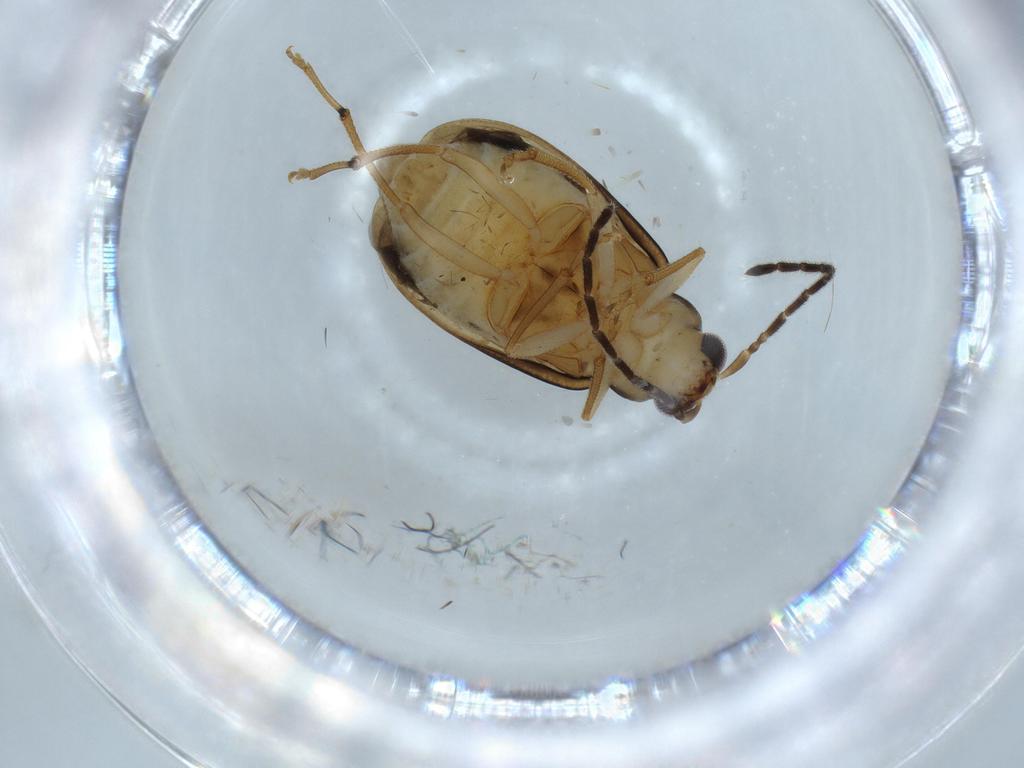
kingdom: Animalia
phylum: Arthropoda
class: Insecta
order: Coleoptera
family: Chrysomelidae
